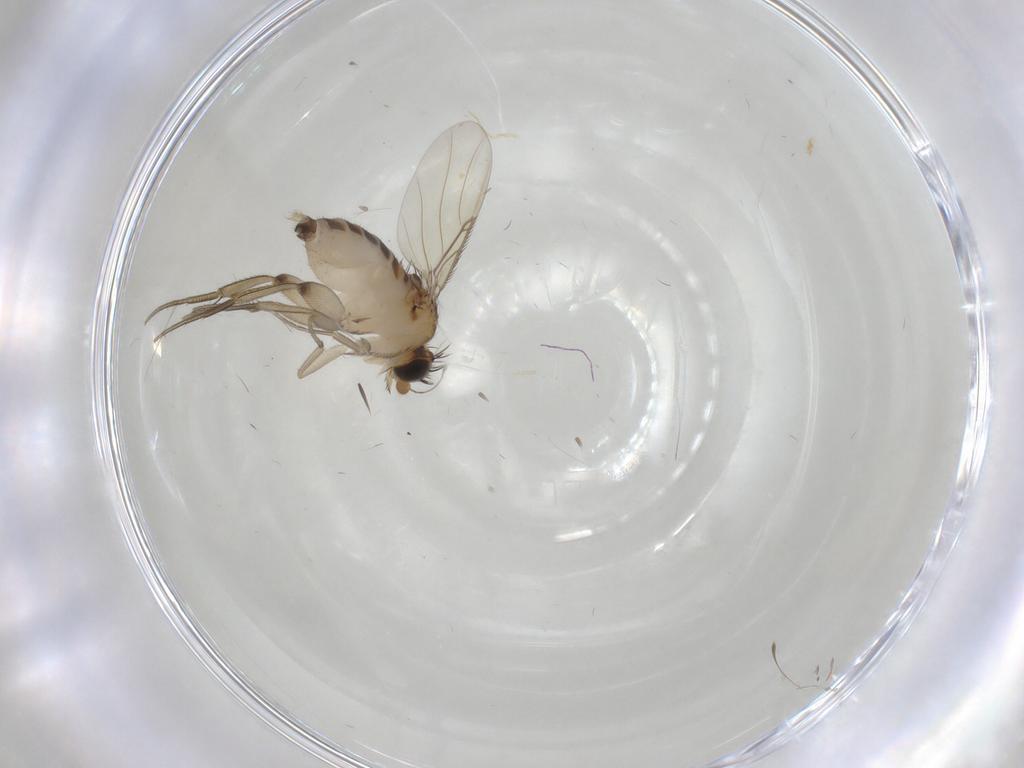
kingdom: Animalia
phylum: Arthropoda
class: Insecta
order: Diptera
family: Phoridae
